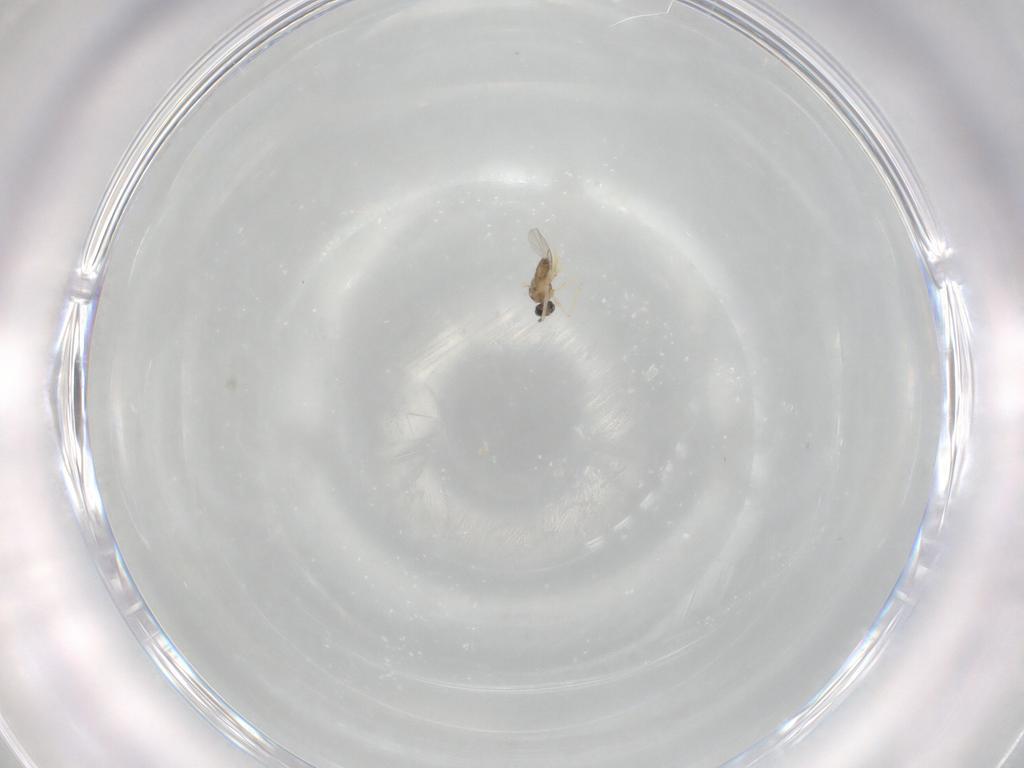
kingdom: Animalia
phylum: Arthropoda
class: Insecta
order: Diptera
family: Cecidomyiidae
